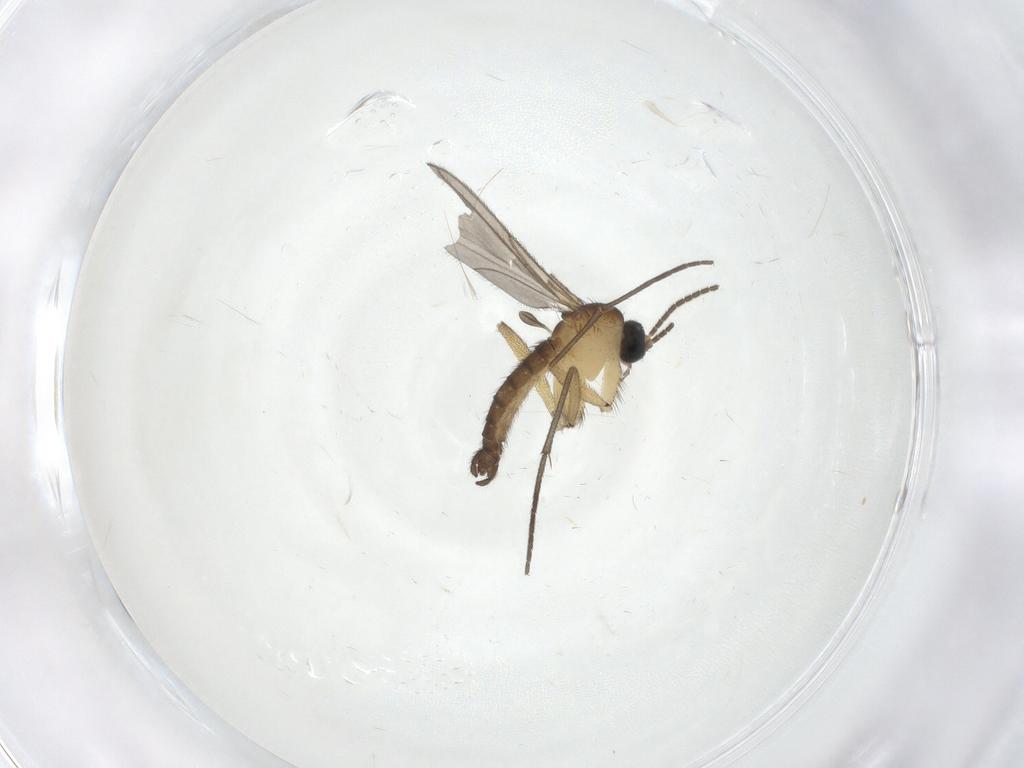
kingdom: Animalia
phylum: Arthropoda
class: Insecta
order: Diptera
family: Sciaridae
